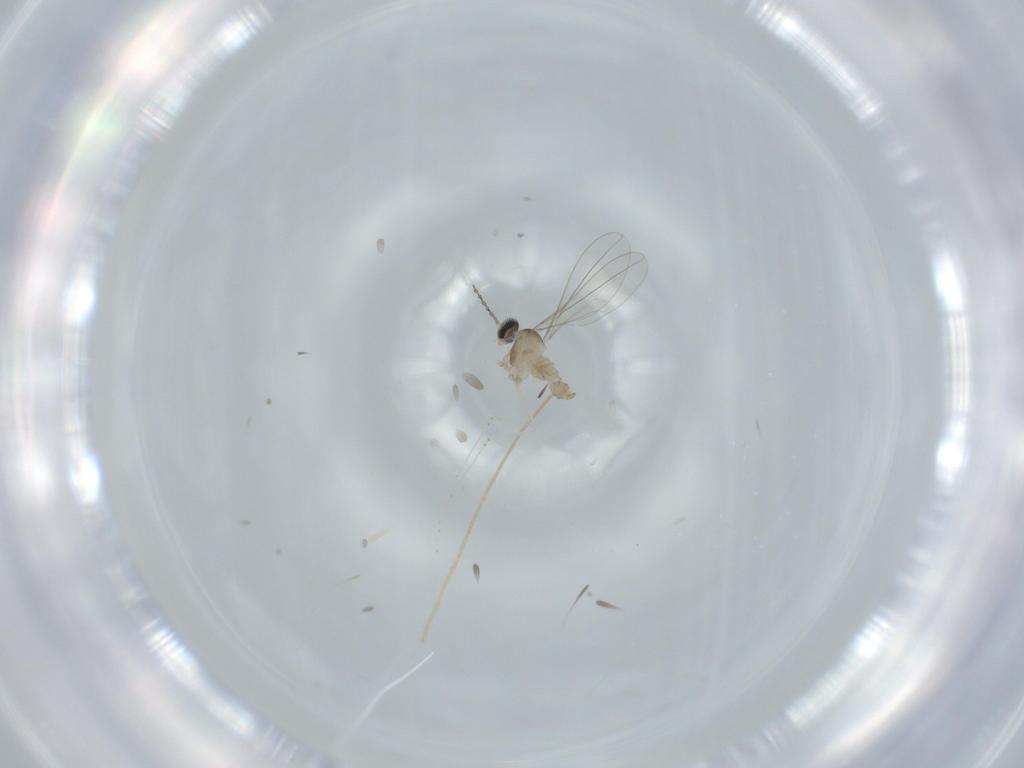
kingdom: Animalia
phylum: Arthropoda
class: Insecta
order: Diptera
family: Cecidomyiidae
